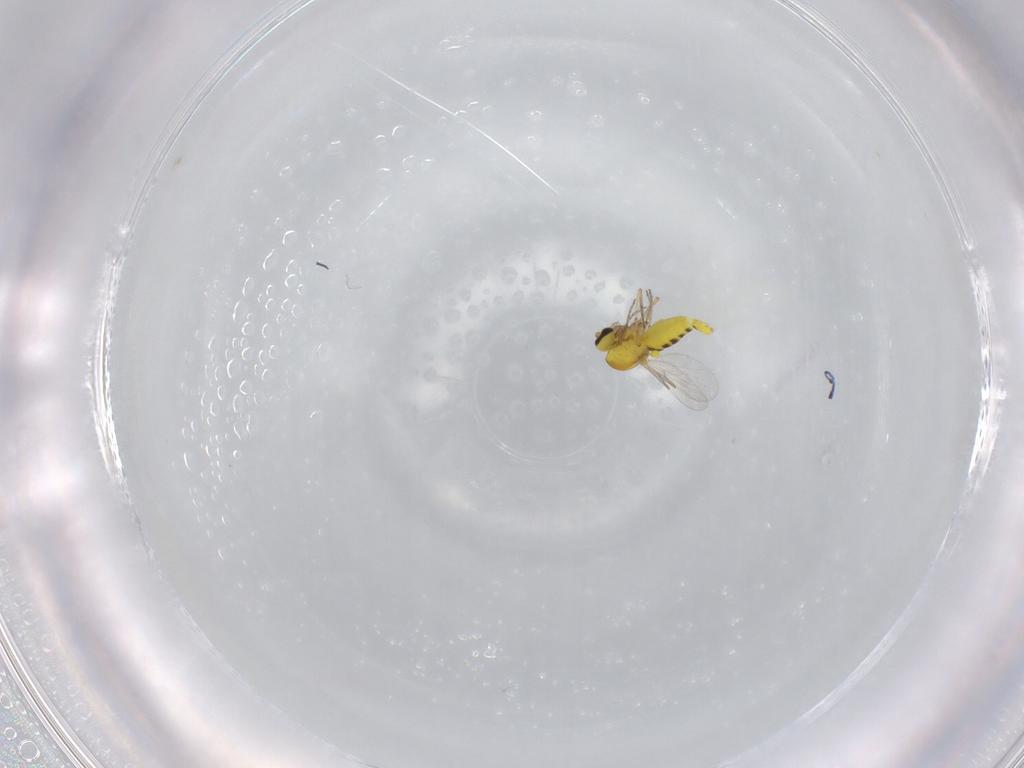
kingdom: Animalia
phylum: Arthropoda
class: Insecta
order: Diptera
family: Ceratopogonidae
